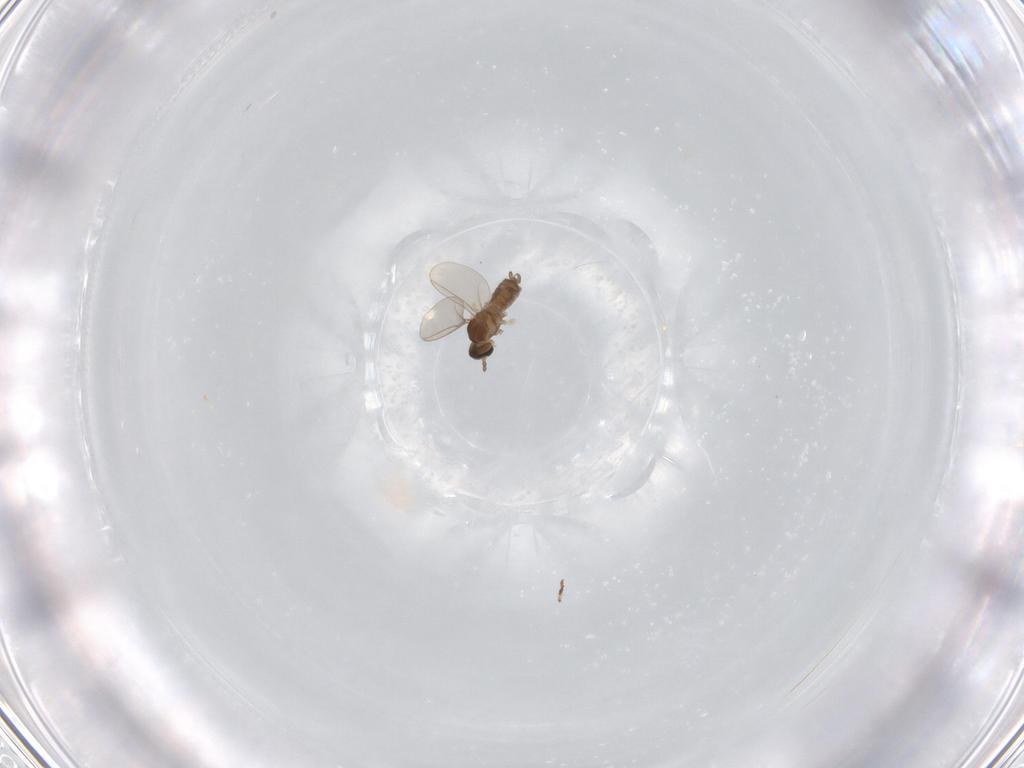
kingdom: Animalia
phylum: Arthropoda
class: Insecta
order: Diptera
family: Cecidomyiidae
